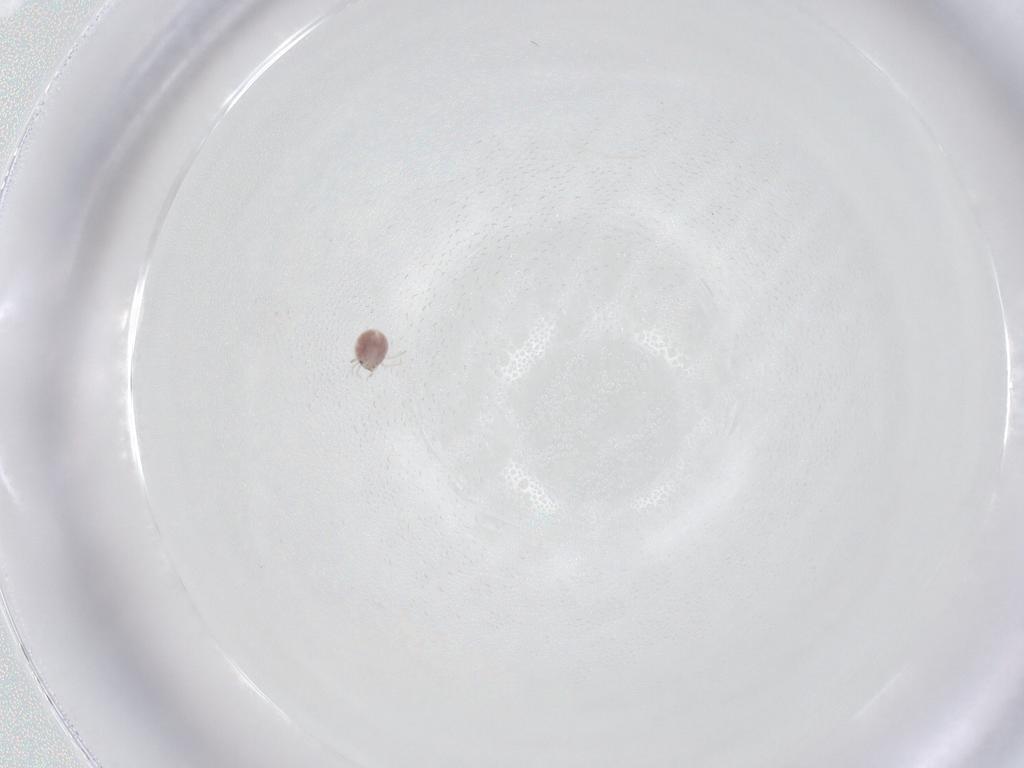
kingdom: Animalia
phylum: Arthropoda
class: Arachnida
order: Trombidiformes
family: Pionidae
